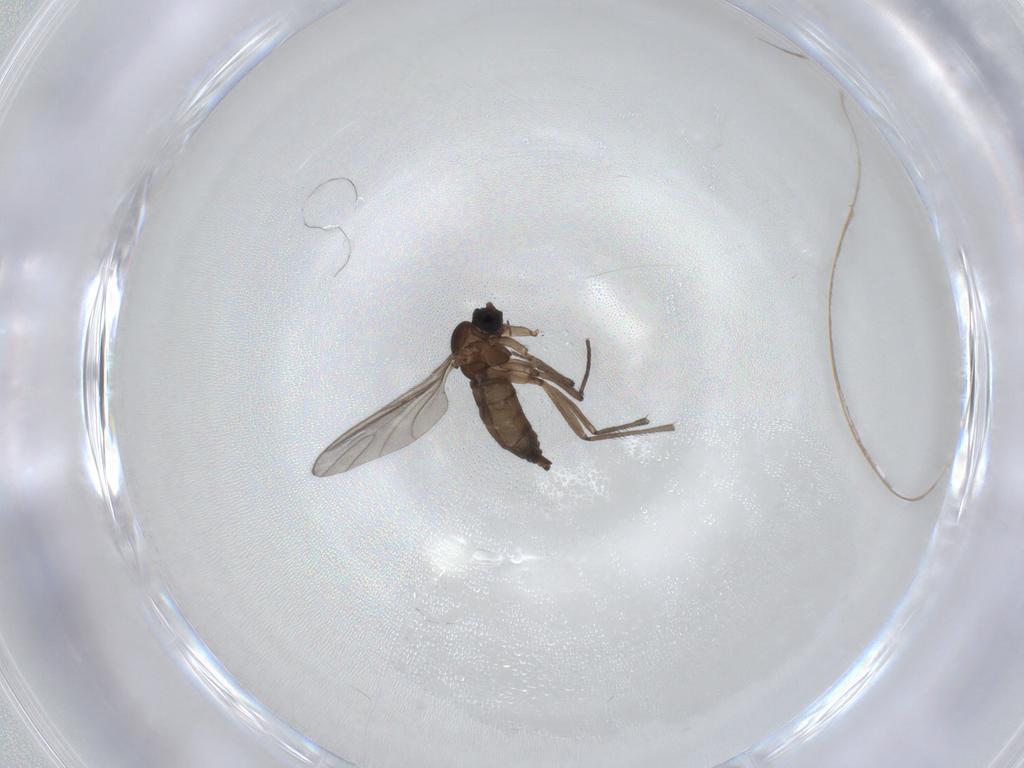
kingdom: Animalia
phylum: Arthropoda
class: Insecta
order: Diptera
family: Sciaridae
